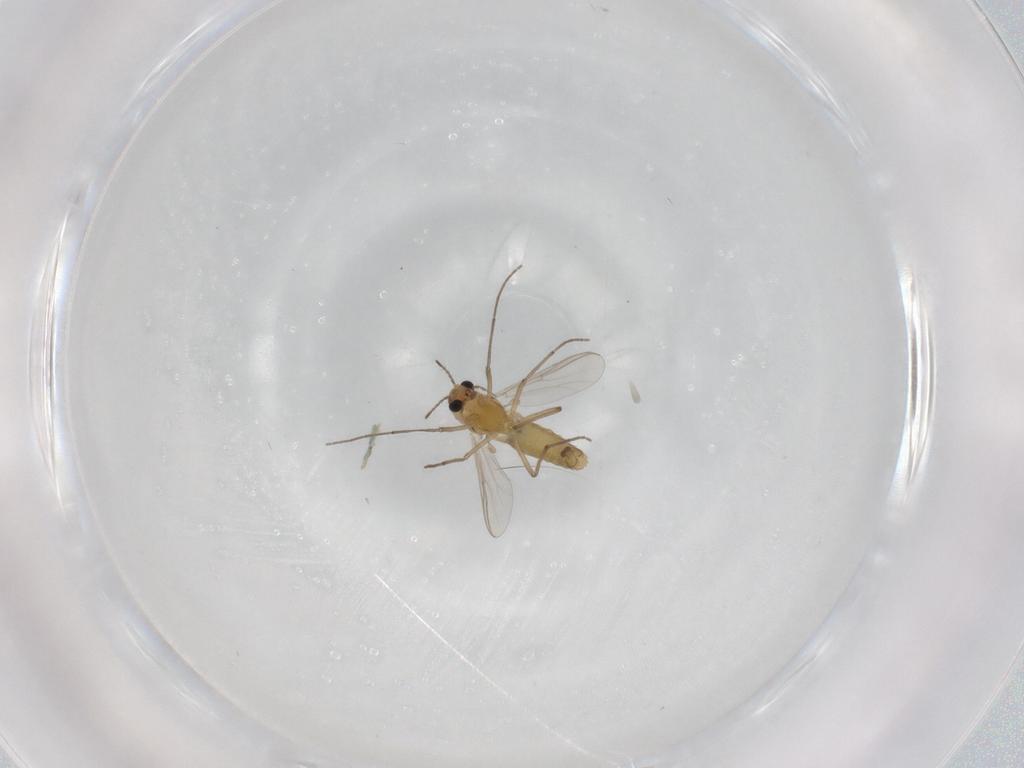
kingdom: Animalia
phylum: Arthropoda
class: Insecta
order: Diptera
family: Chironomidae
